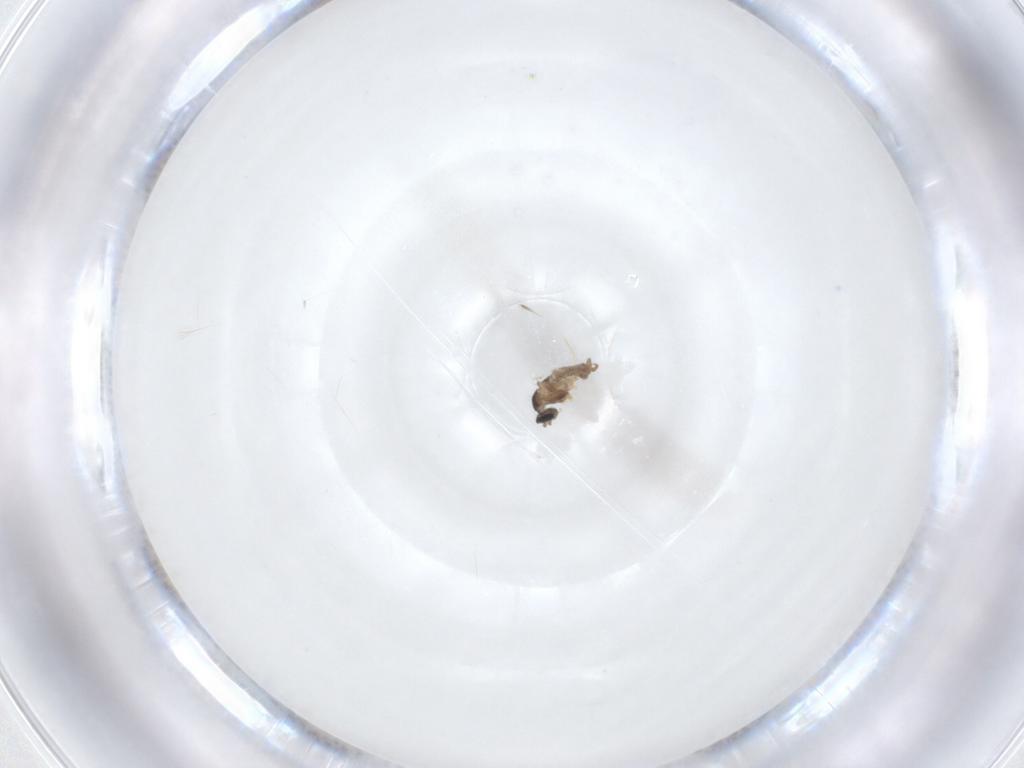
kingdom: Animalia
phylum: Arthropoda
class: Insecta
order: Diptera
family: Cecidomyiidae
